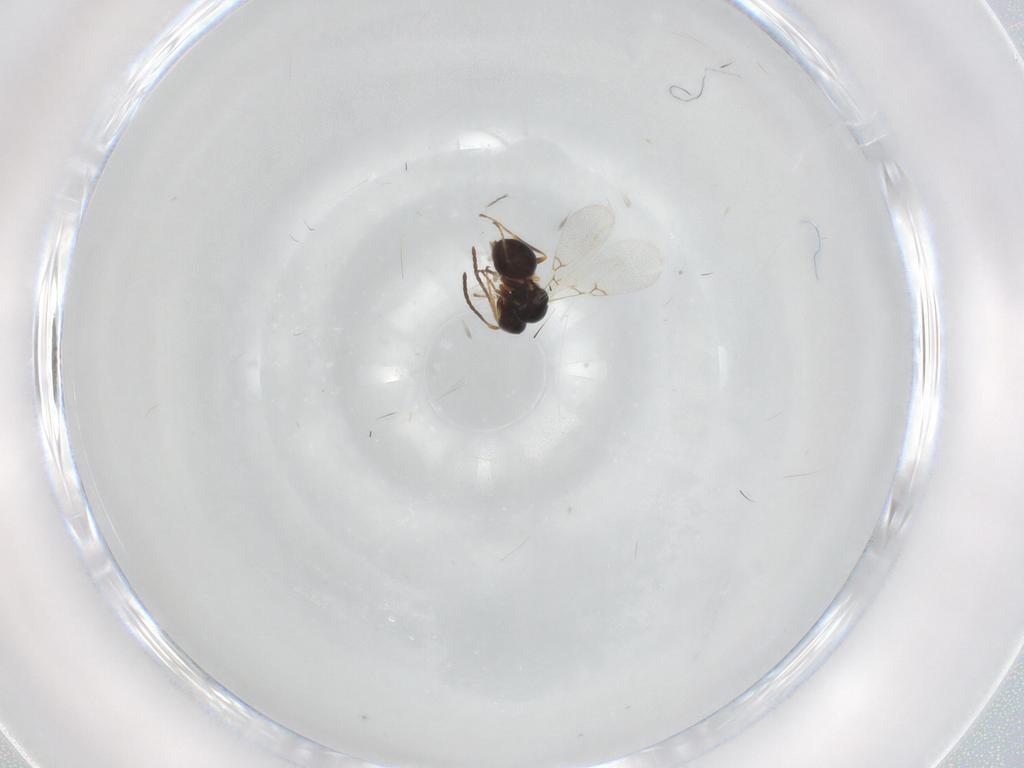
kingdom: Animalia
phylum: Arthropoda
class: Insecta
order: Hymenoptera
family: Figitidae
